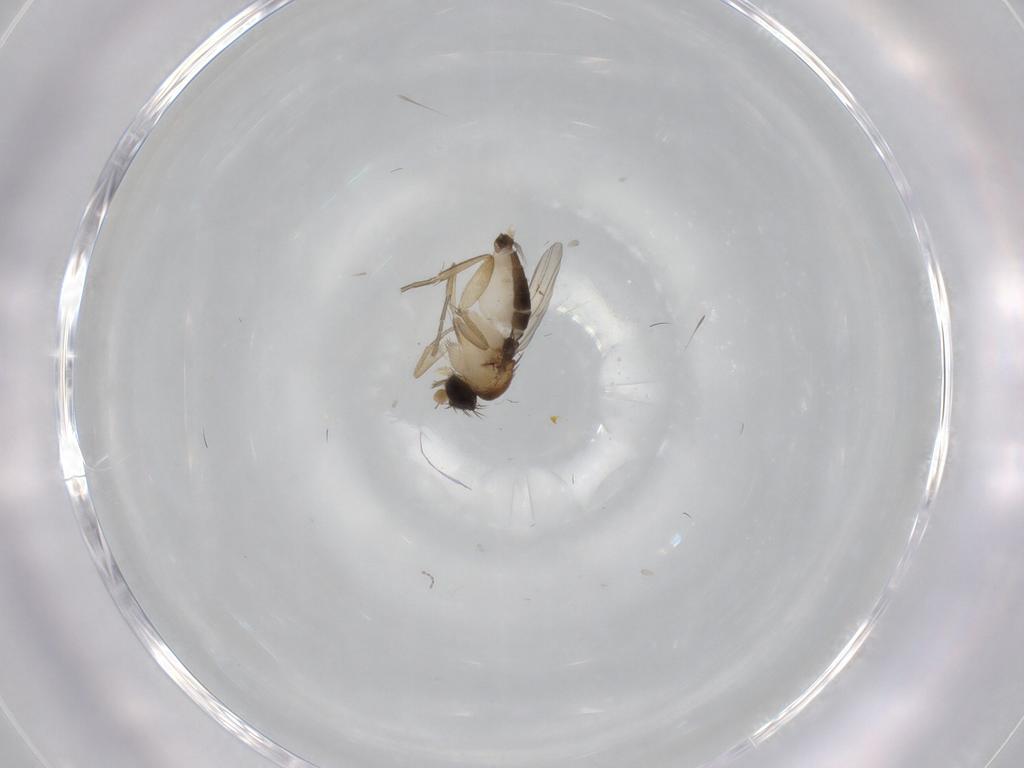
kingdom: Animalia
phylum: Arthropoda
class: Insecta
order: Diptera
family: Phoridae
